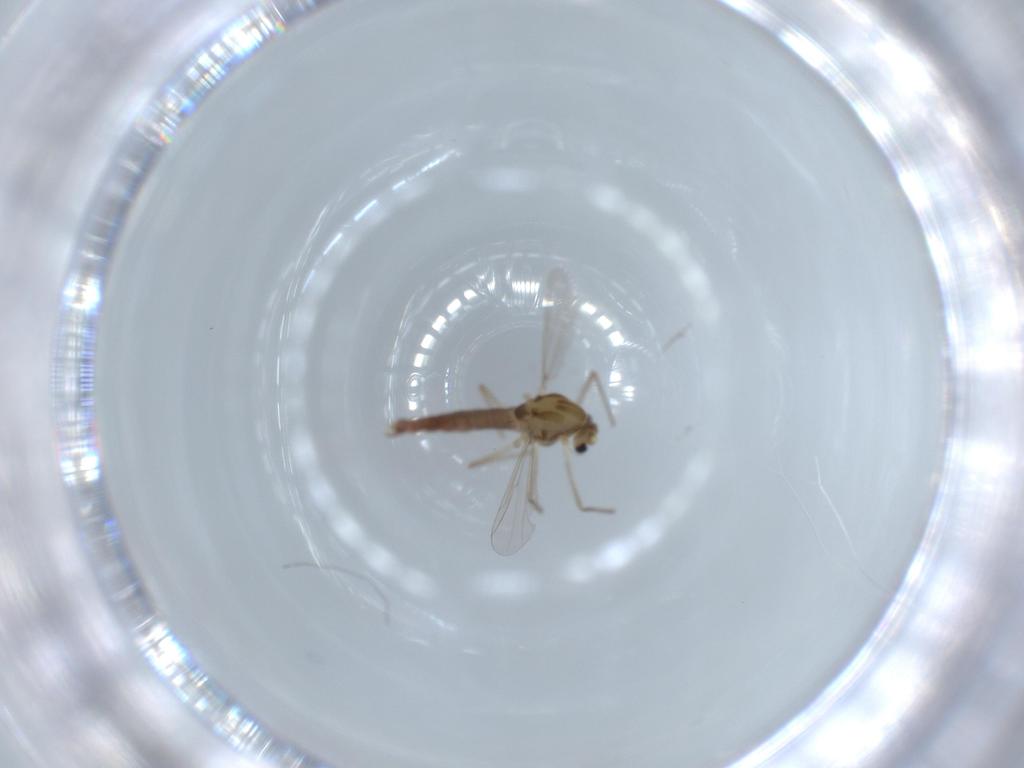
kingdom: Animalia
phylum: Arthropoda
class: Insecta
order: Diptera
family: Chironomidae
